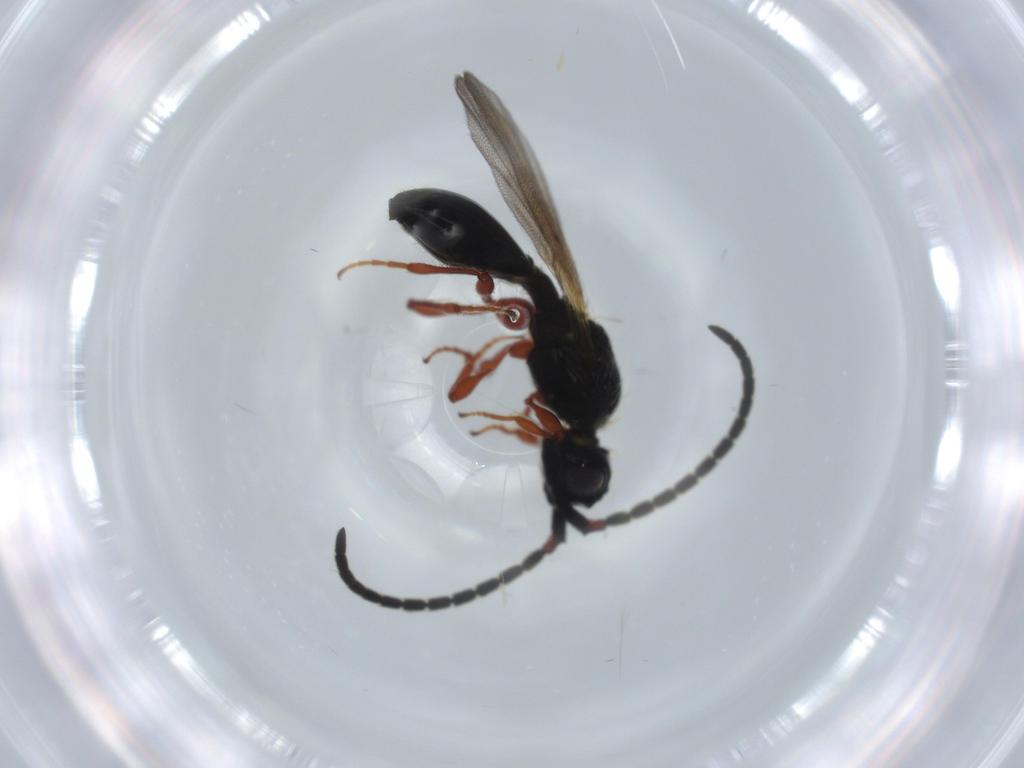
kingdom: Animalia
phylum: Arthropoda
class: Insecta
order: Hymenoptera
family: Diapriidae
